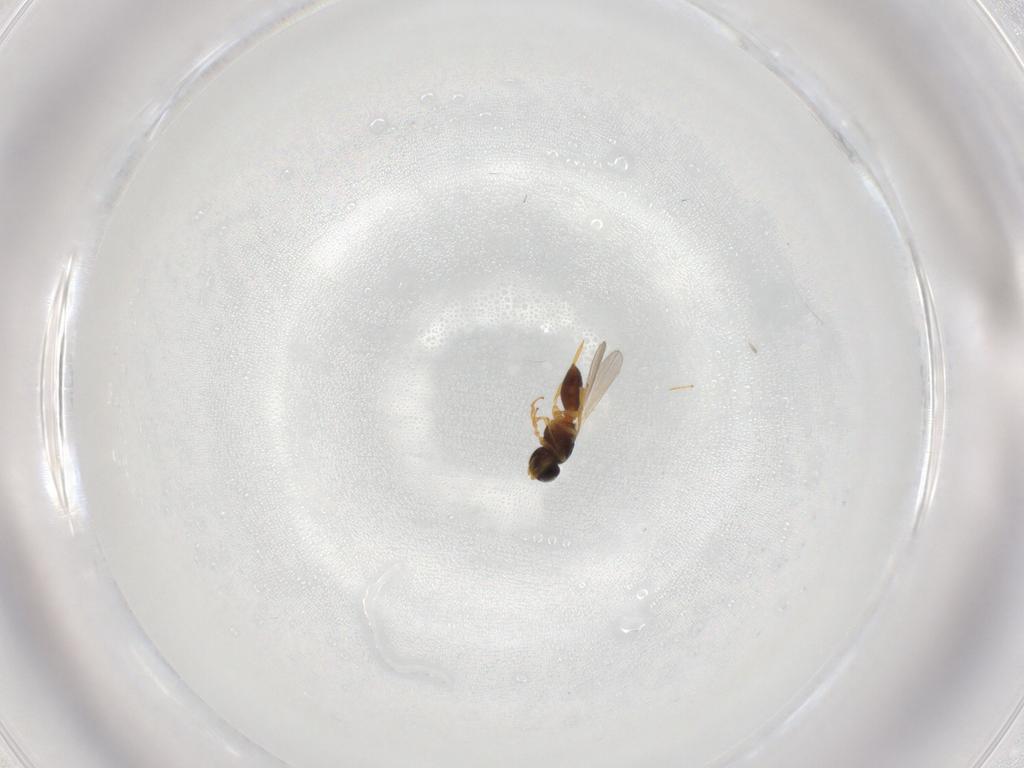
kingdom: Animalia
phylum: Arthropoda
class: Insecta
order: Hymenoptera
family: Platygastridae
